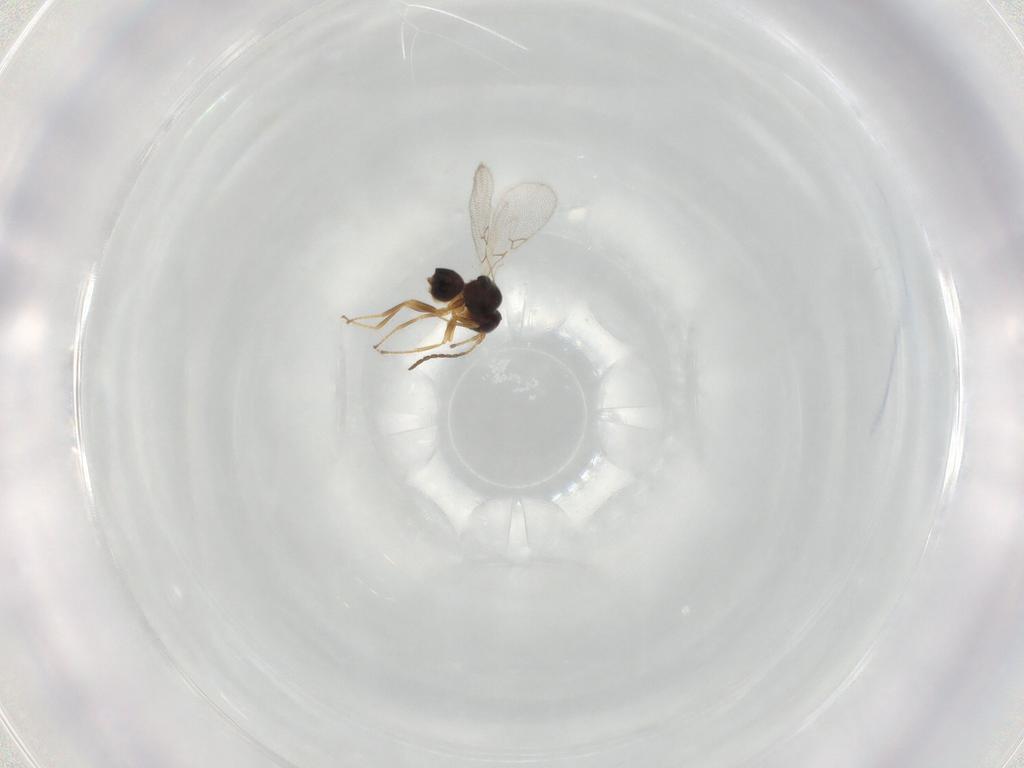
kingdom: Animalia
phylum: Arthropoda
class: Insecta
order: Hymenoptera
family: Figitidae
